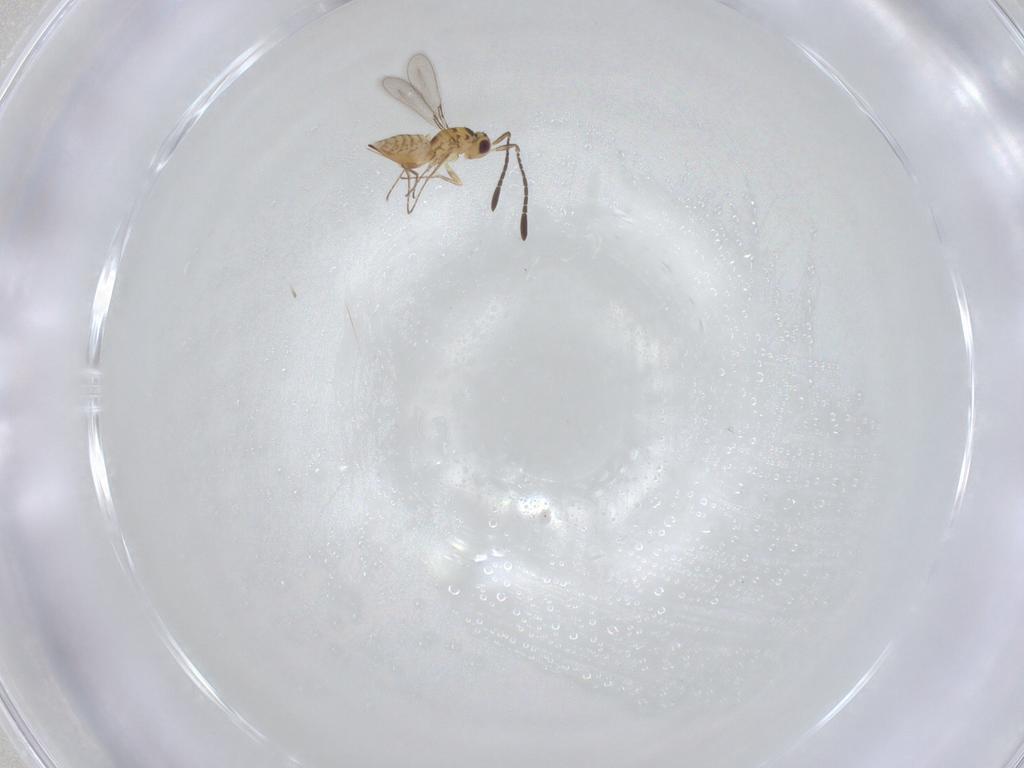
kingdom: Animalia
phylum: Arthropoda
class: Insecta
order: Hymenoptera
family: Mymaridae
